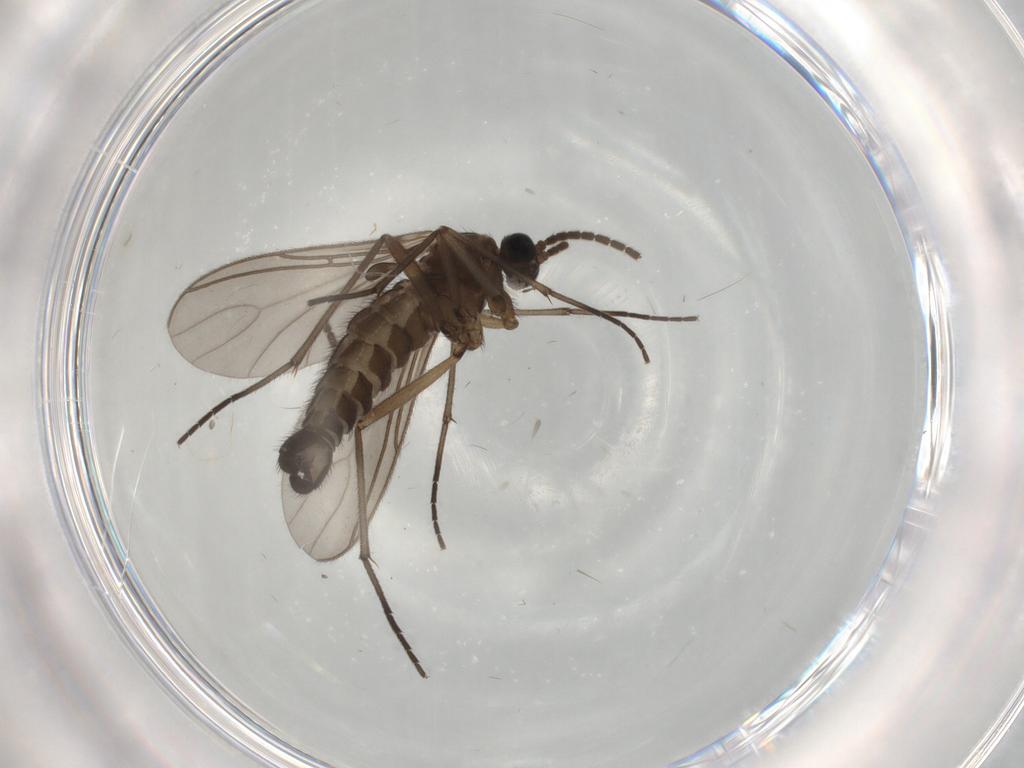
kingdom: Animalia
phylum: Arthropoda
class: Insecta
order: Diptera
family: Sciaridae
